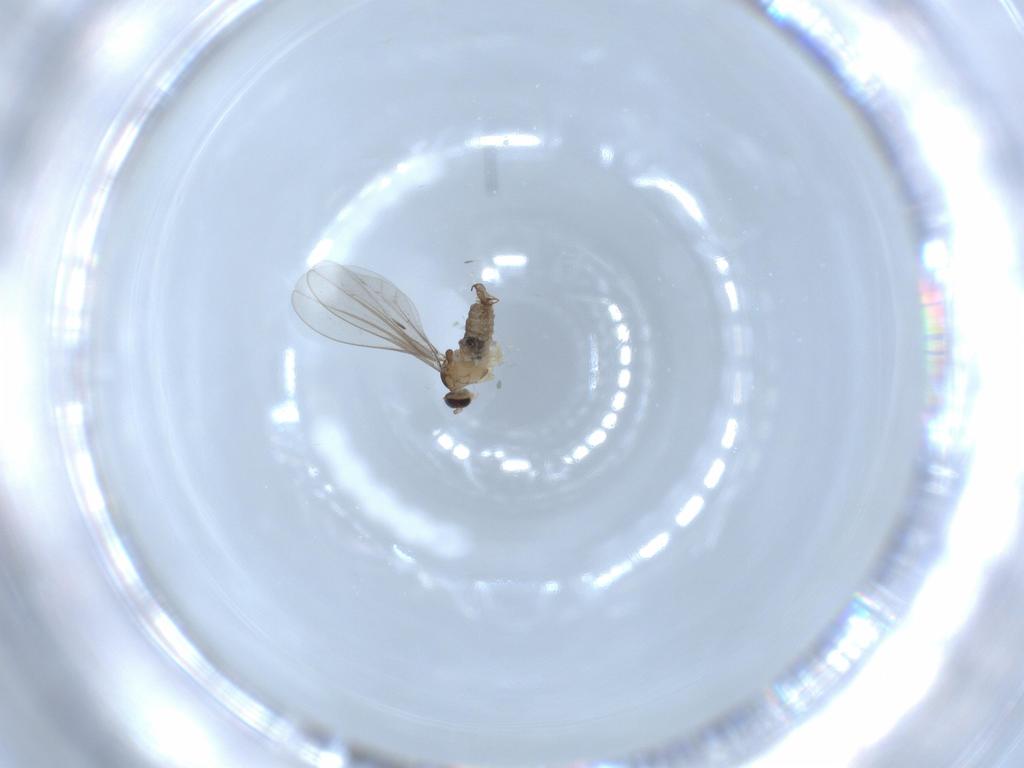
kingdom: Animalia
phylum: Arthropoda
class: Insecta
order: Diptera
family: Cecidomyiidae
